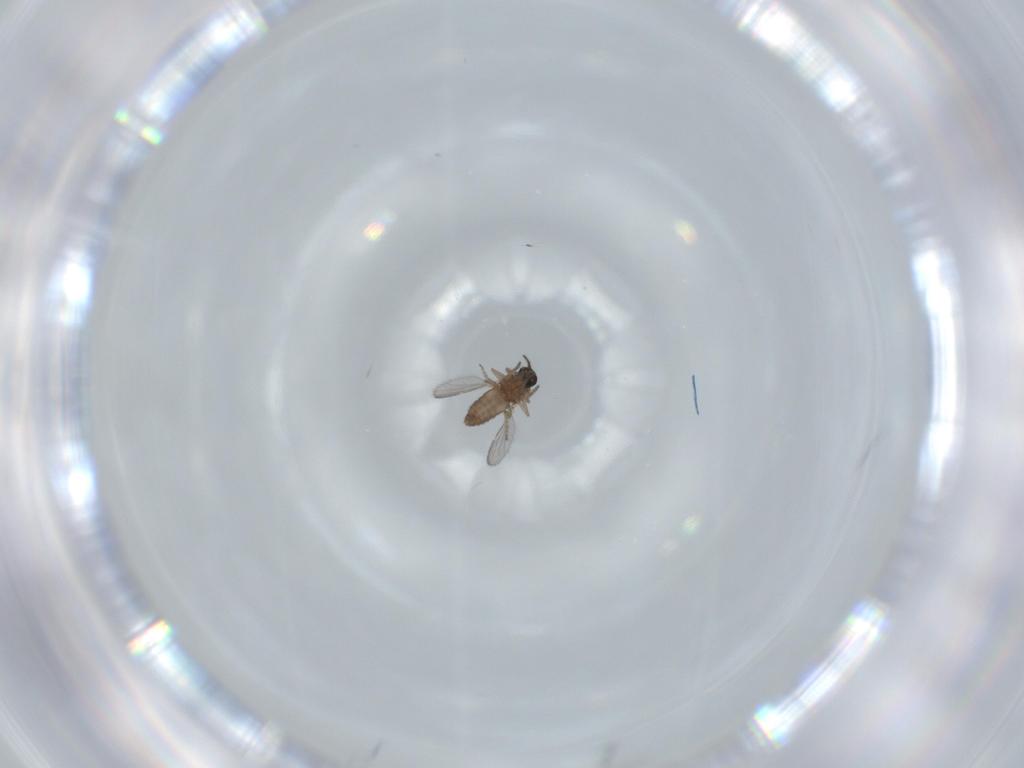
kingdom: Animalia
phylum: Arthropoda
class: Insecta
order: Diptera
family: Ceratopogonidae
